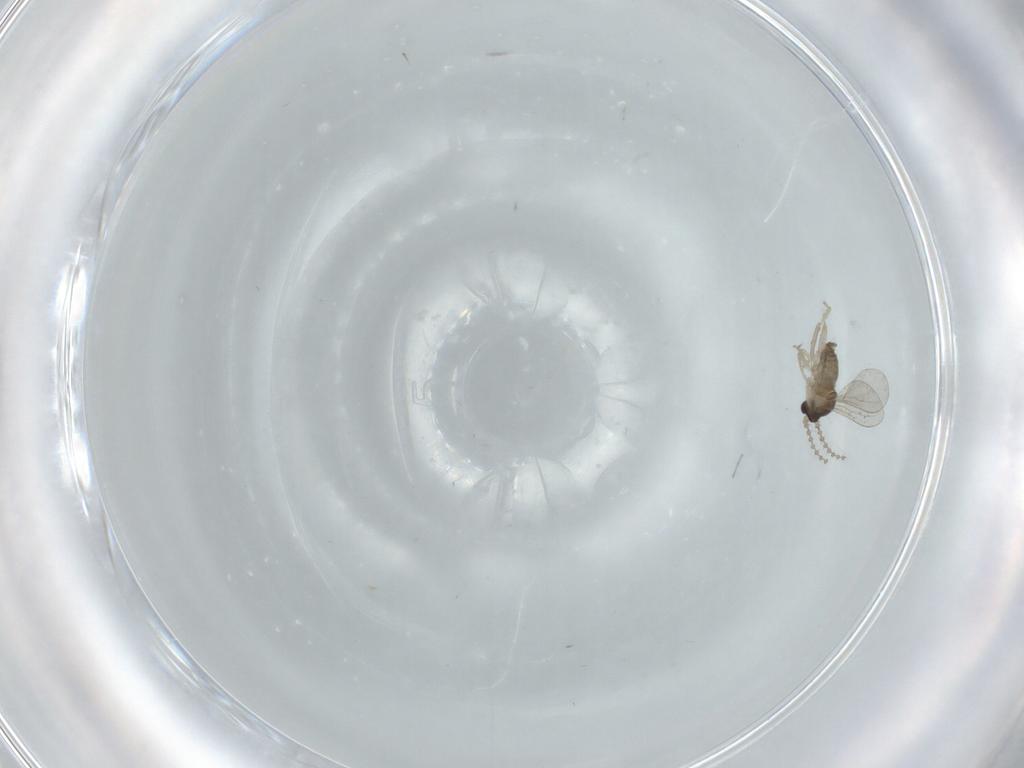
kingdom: Animalia
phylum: Arthropoda
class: Insecta
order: Diptera
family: Cecidomyiidae
